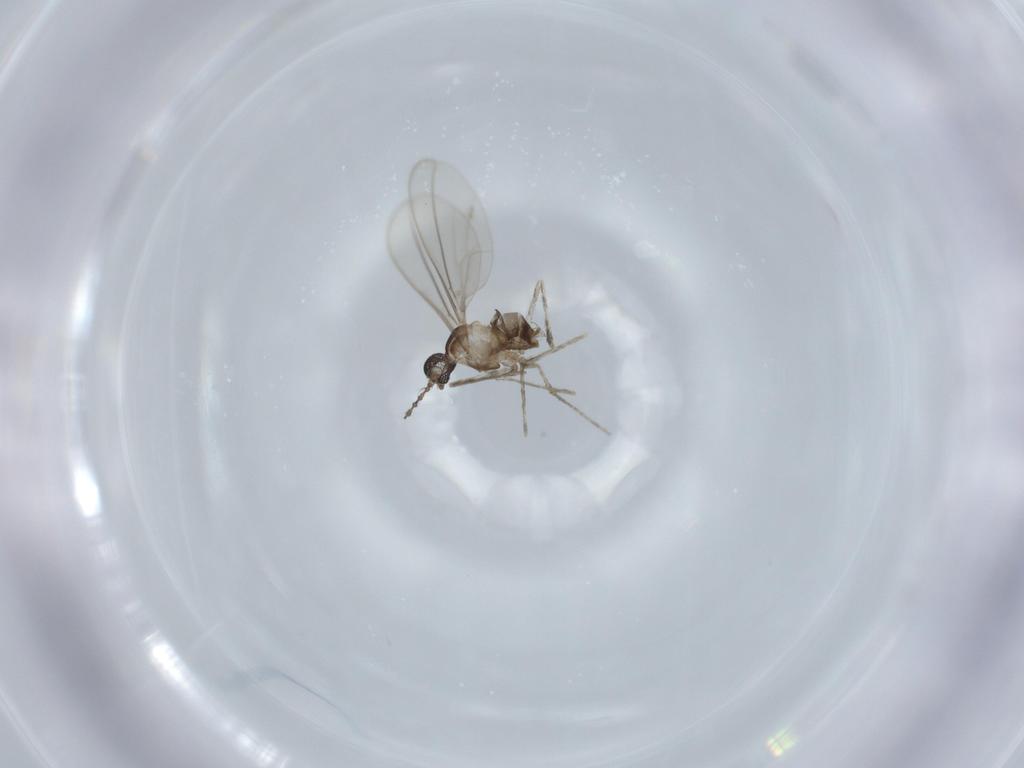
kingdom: Animalia
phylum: Arthropoda
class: Insecta
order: Diptera
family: Cecidomyiidae
